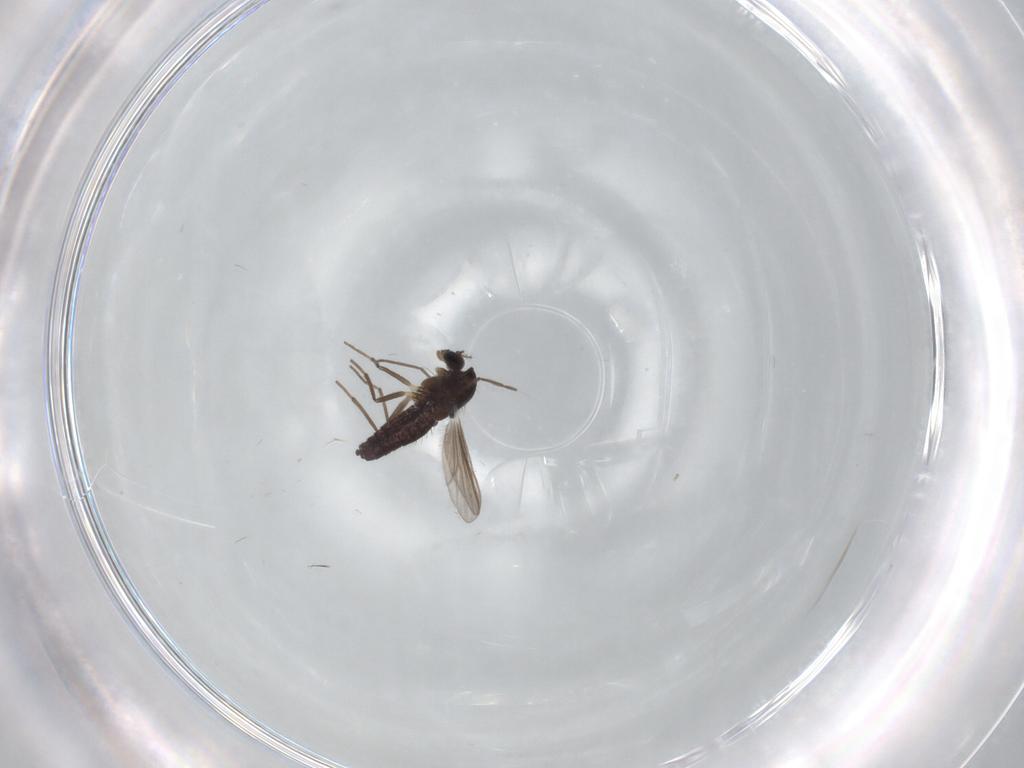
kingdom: Animalia
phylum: Arthropoda
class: Insecta
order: Diptera
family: Chironomidae
